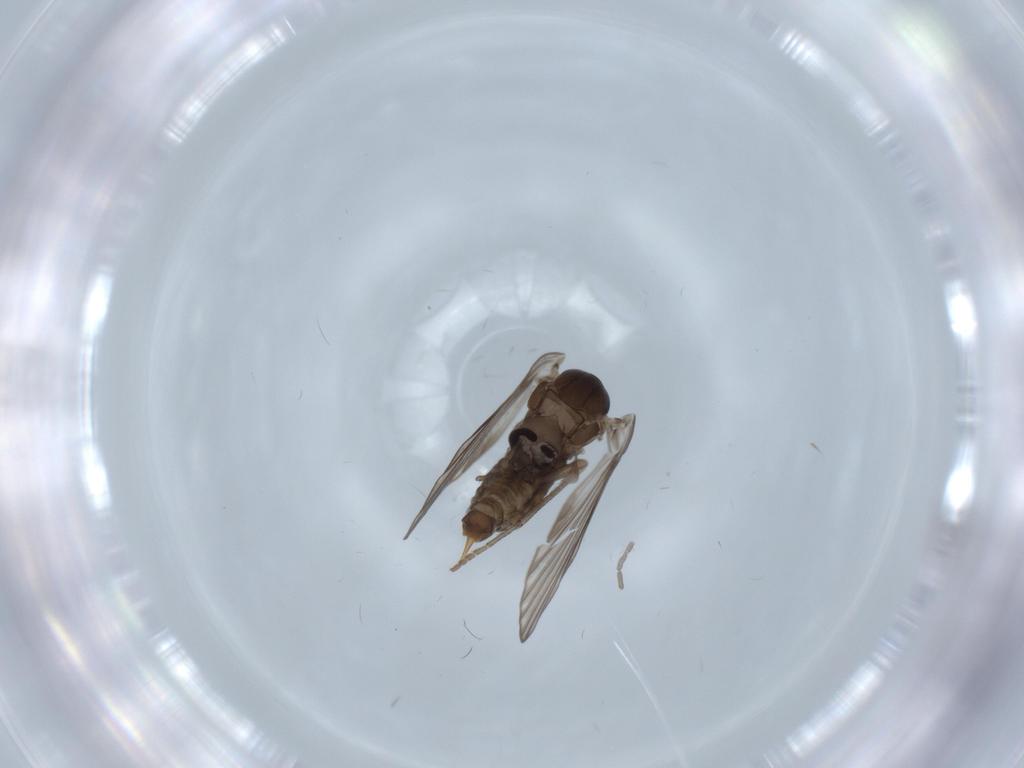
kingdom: Animalia
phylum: Arthropoda
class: Insecta
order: Diptera
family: Psychodidae
